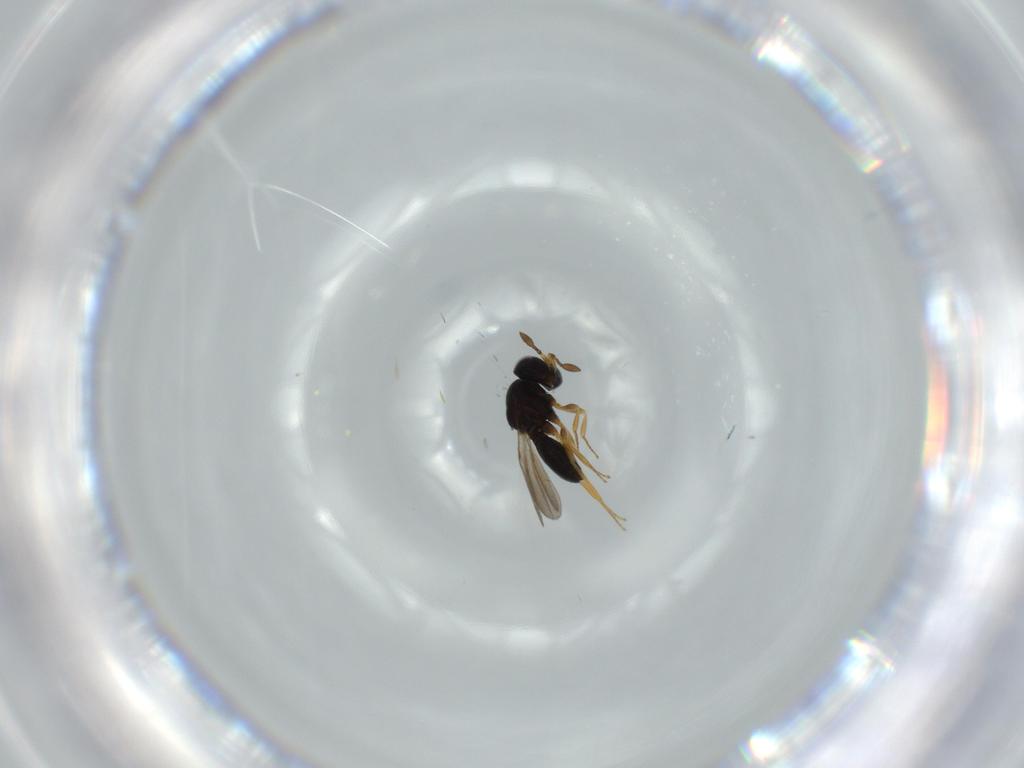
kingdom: Animalia
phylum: Arthropoda
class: Insecta
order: Hymenoptera
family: Scelionidae
